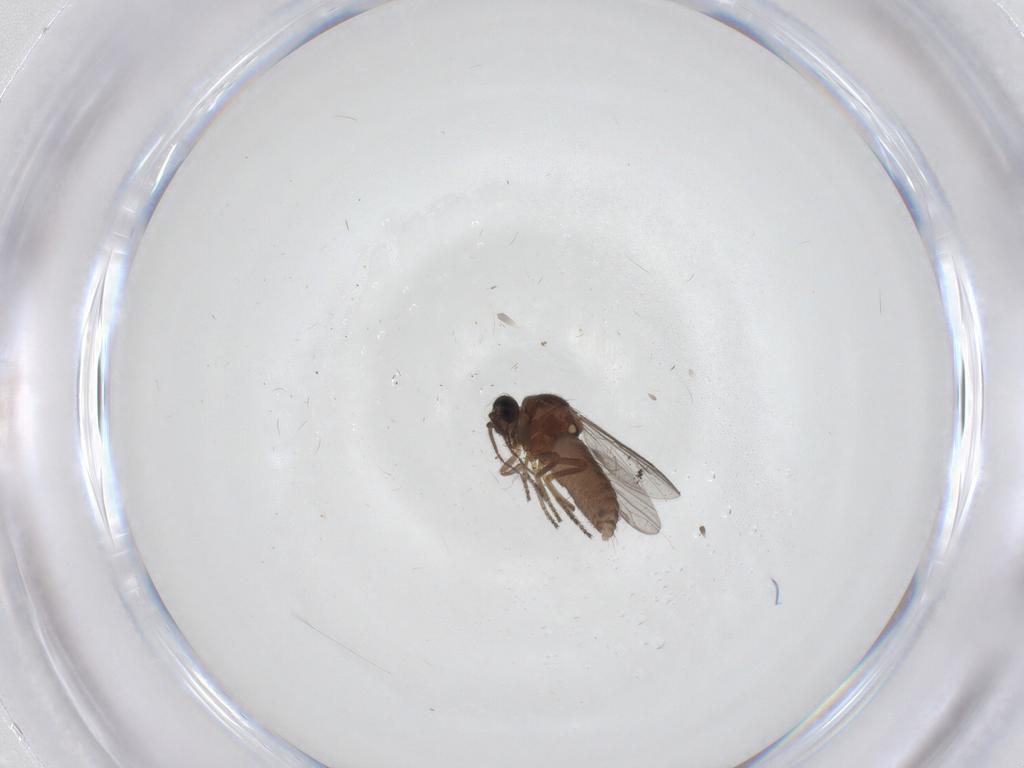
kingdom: Animalia
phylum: Arthropoda
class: Insecta
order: Diptera
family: Ceratopogonidae
